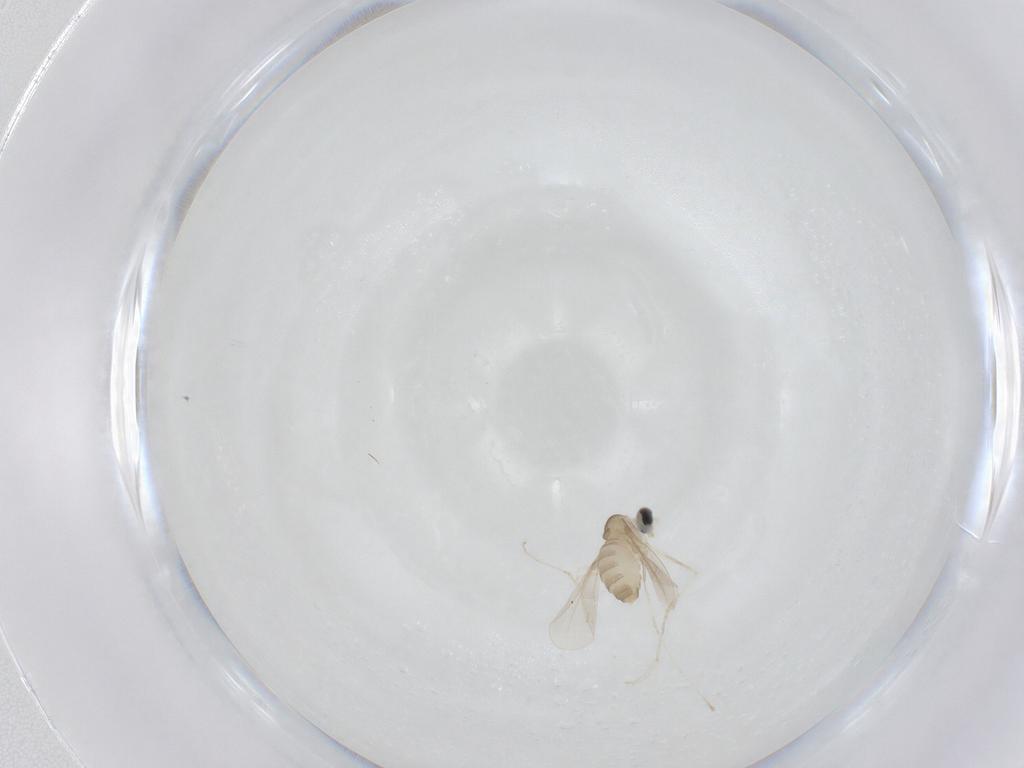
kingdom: Animalia
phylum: Arthropoda
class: Insecta
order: Diptera
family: Cecidomyiidae
